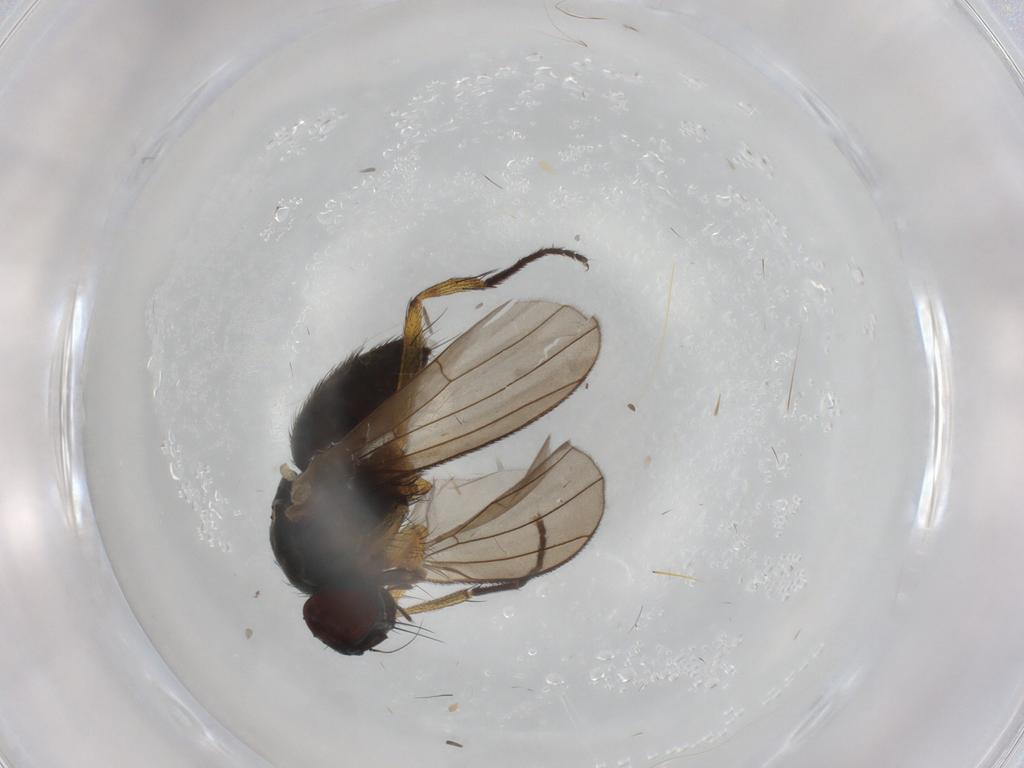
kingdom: Animalia
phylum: Arthropoda
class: Insecta
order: Diptera
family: Muscidae
